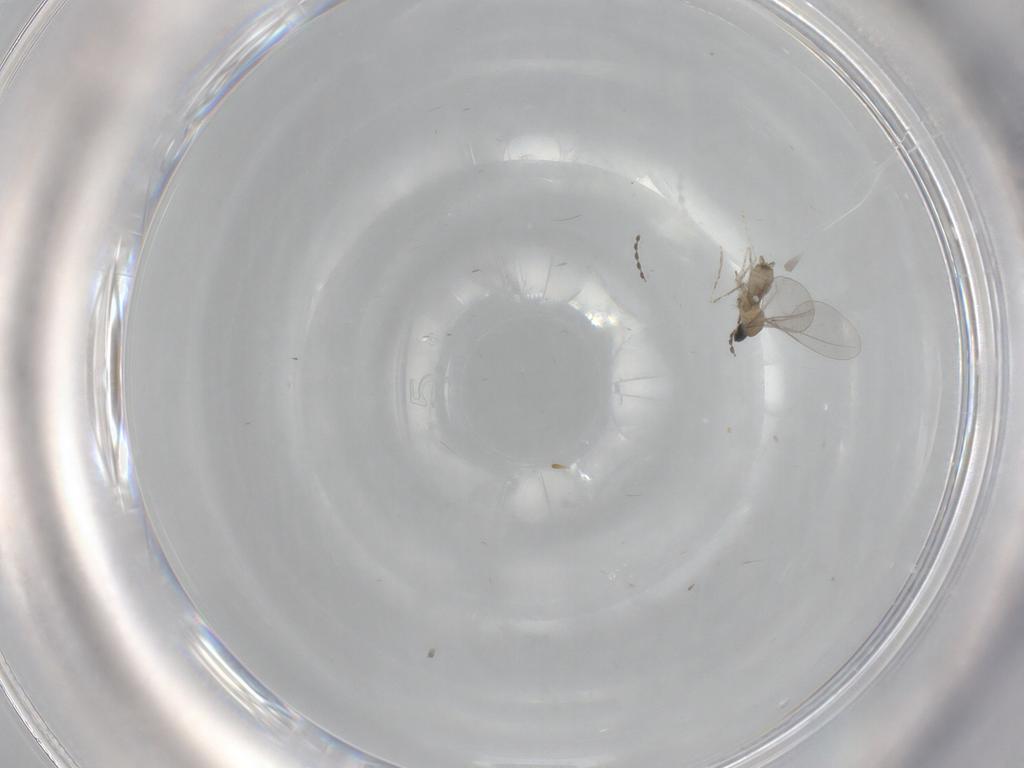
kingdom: Animalia
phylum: Arthropoda
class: Insecta
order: Diptera
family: Cecidomyiidae
